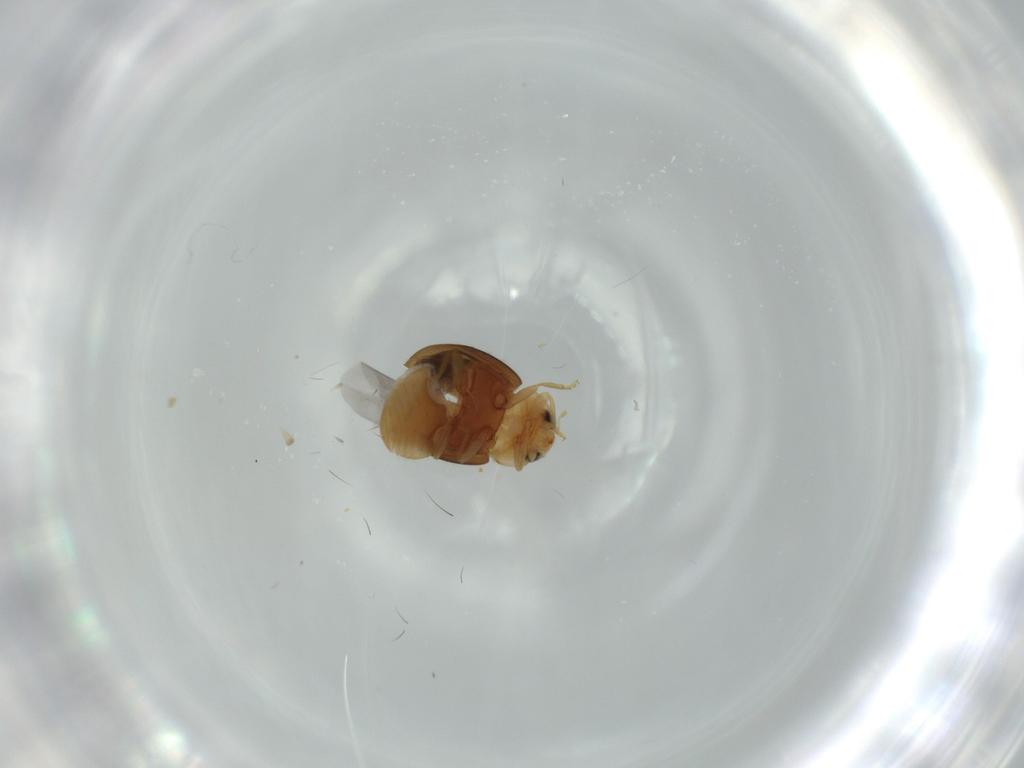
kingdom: Animalia
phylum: Arthropoda
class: Insecta
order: Coleoptera
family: Coccinellidae
